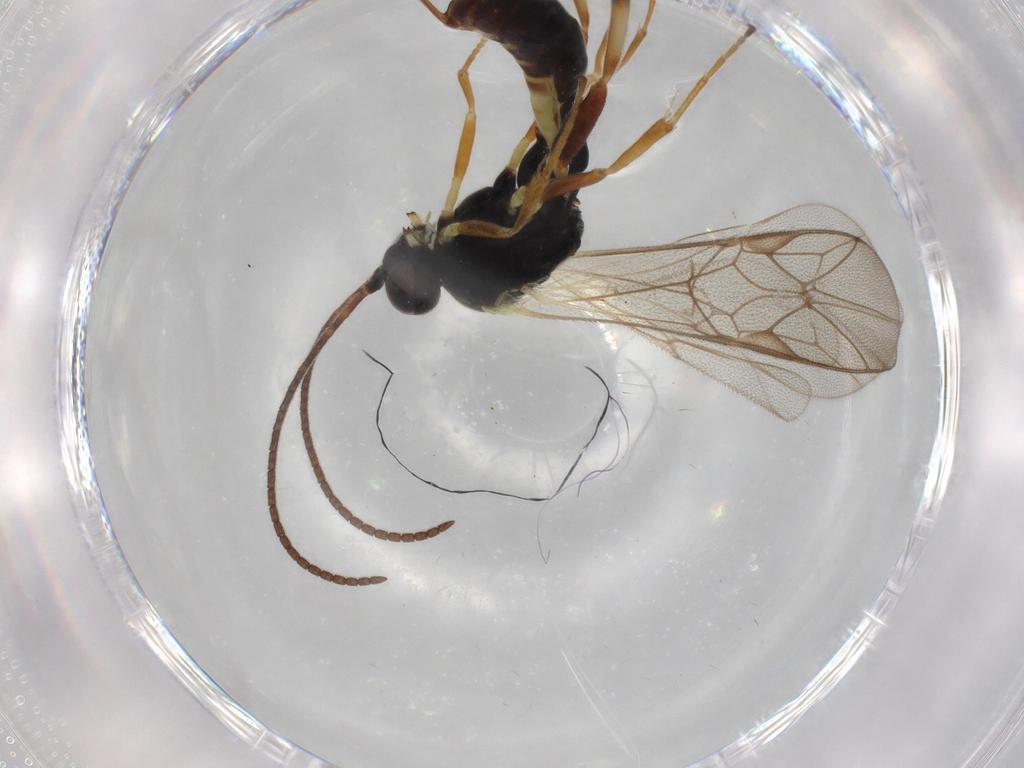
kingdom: Animalia
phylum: Arthropoda
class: Insecta
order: Hymenoptera
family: Ichneumonidae
